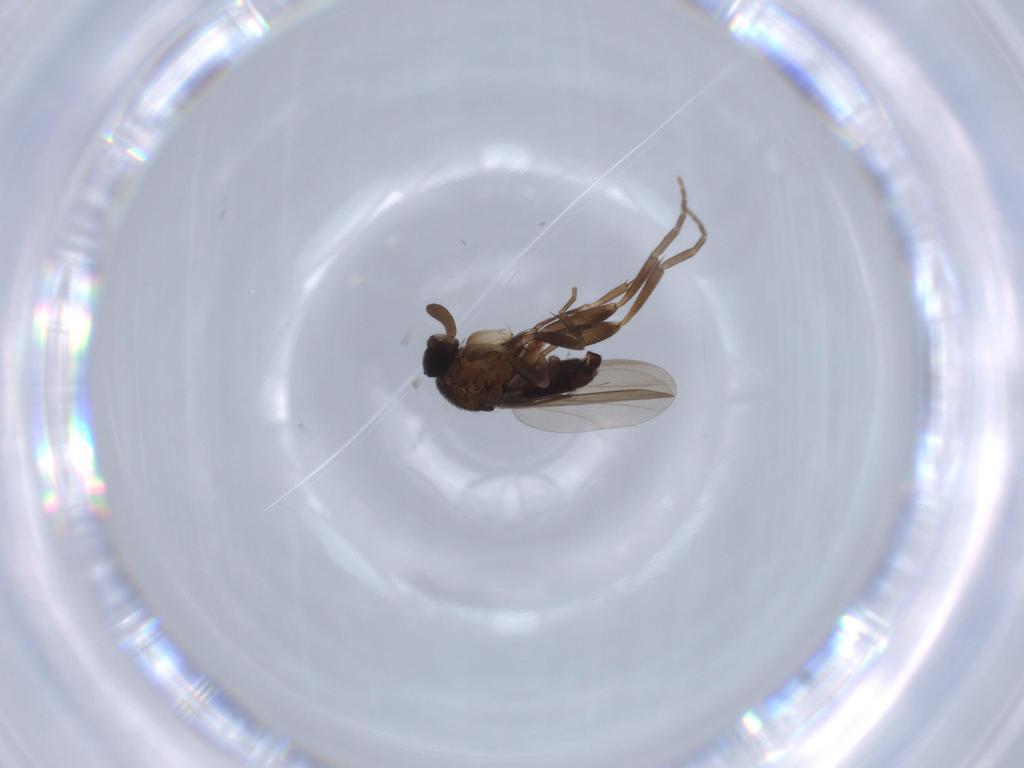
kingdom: Animalia
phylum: Arthropoda
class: Insecta
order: Diptera
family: Phoridae
